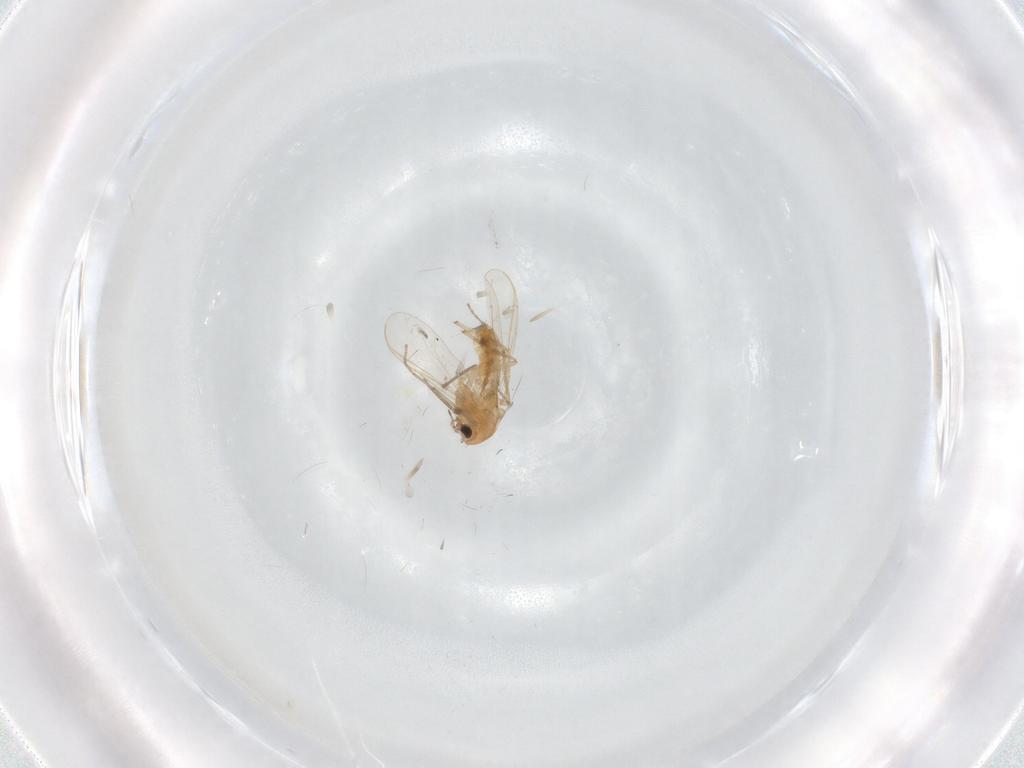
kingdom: Animalia
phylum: Arthropoda
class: Insecta
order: Diptera
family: Chironomidae
